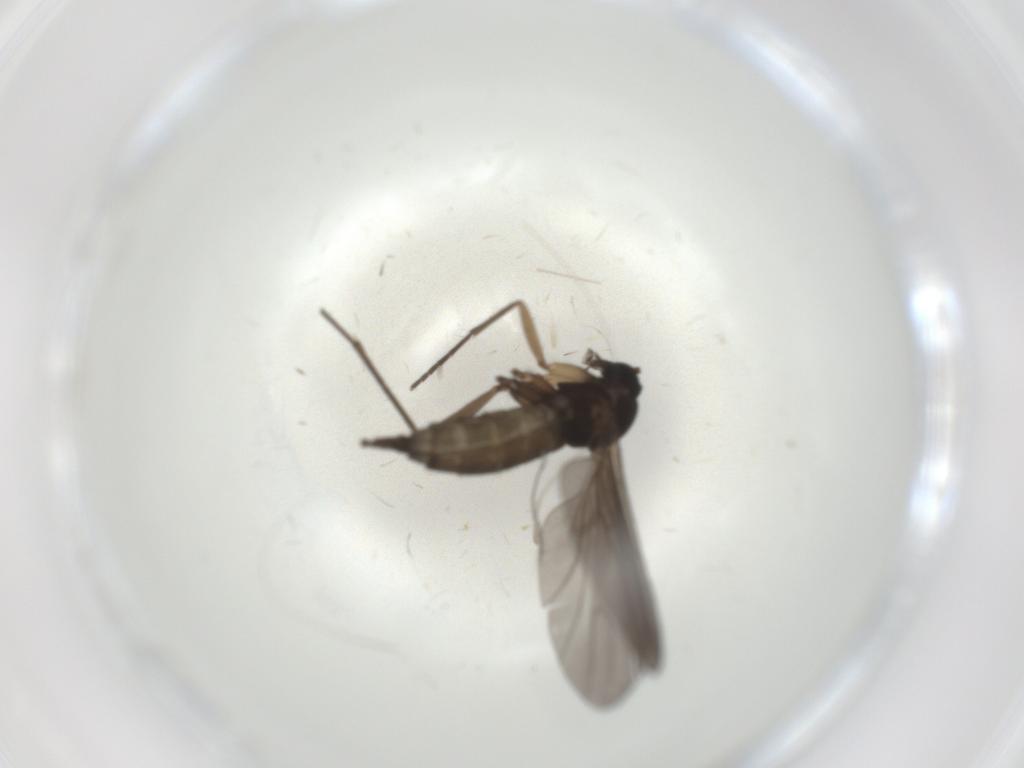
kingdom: Animalia
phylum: Arthropoda
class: Insecta
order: Diptera
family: Sciaridae
